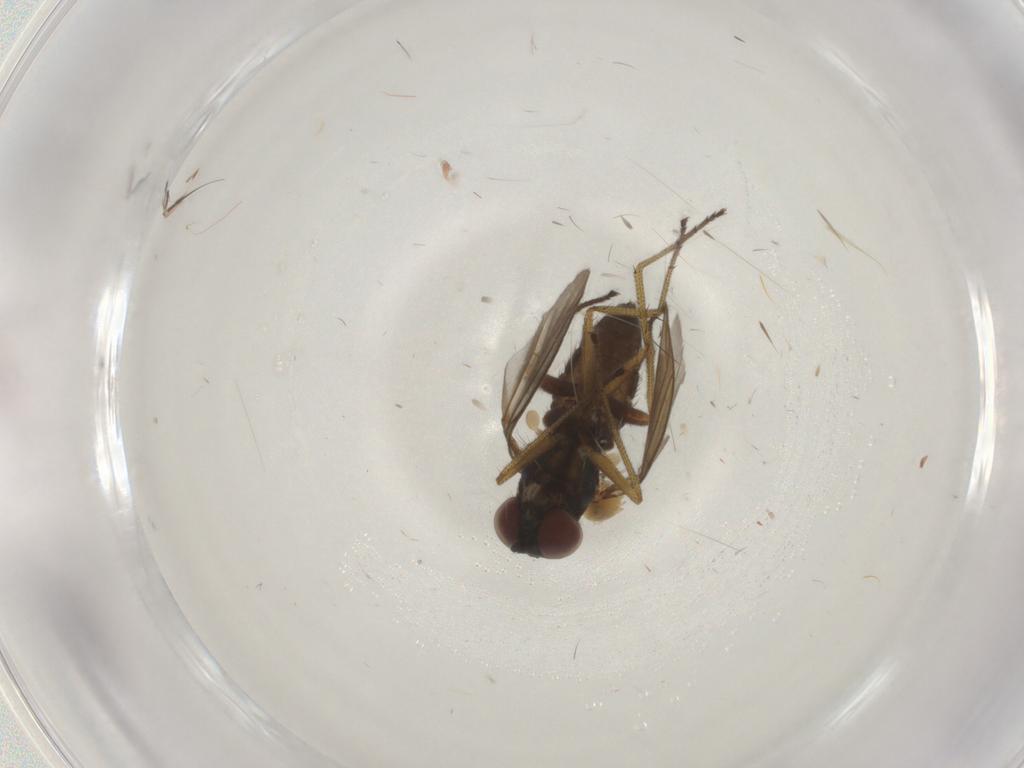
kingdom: Animalia
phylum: Arthropoda
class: Insecta
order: Diptera
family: Dolichopodidae
